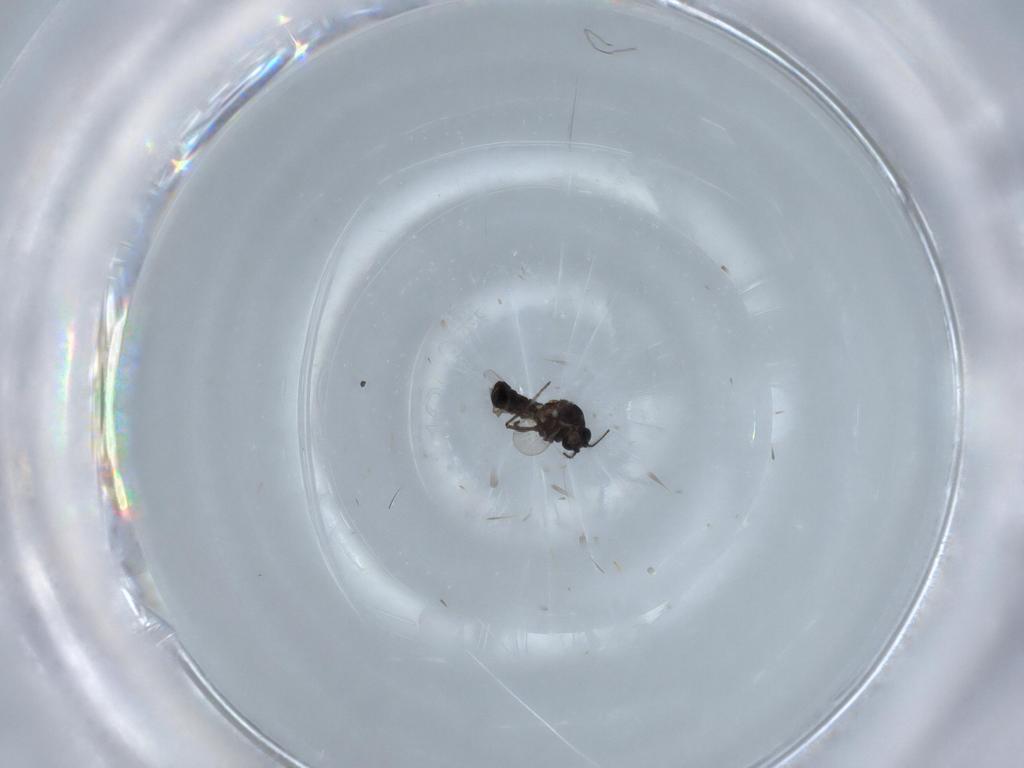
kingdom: Animalia
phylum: Arthropoda
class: Insecta
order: Diptera
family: Ceratopogonidae
